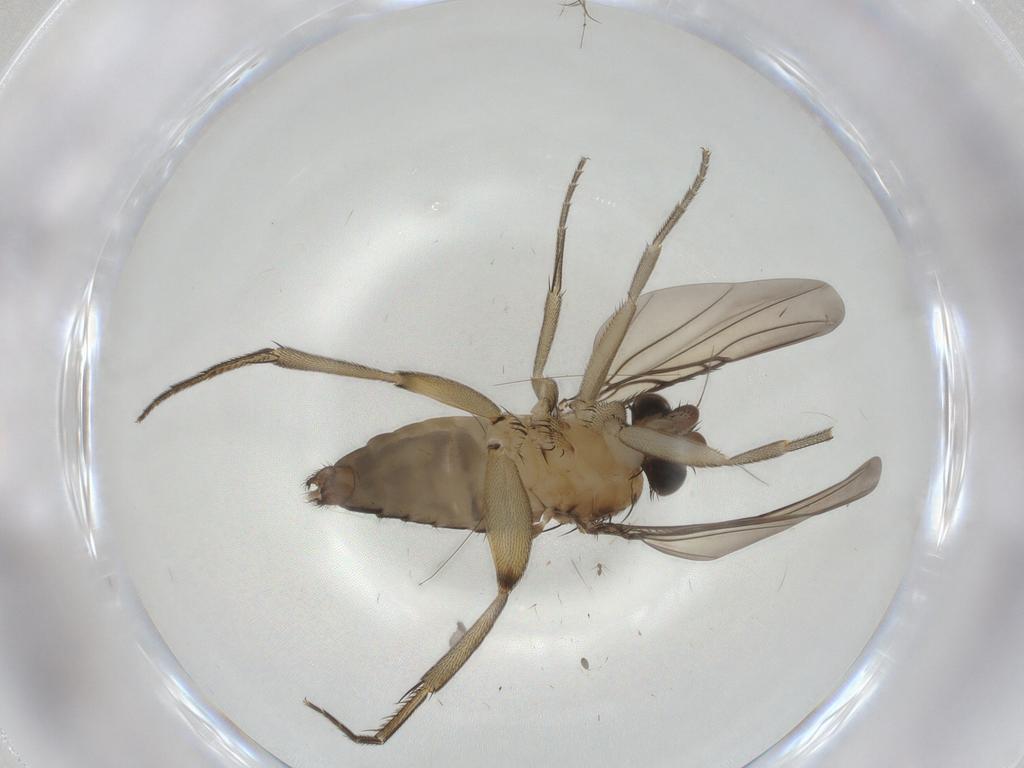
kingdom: Animalia
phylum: Arthropoda
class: Insecta
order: Diptera
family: Phoridae
